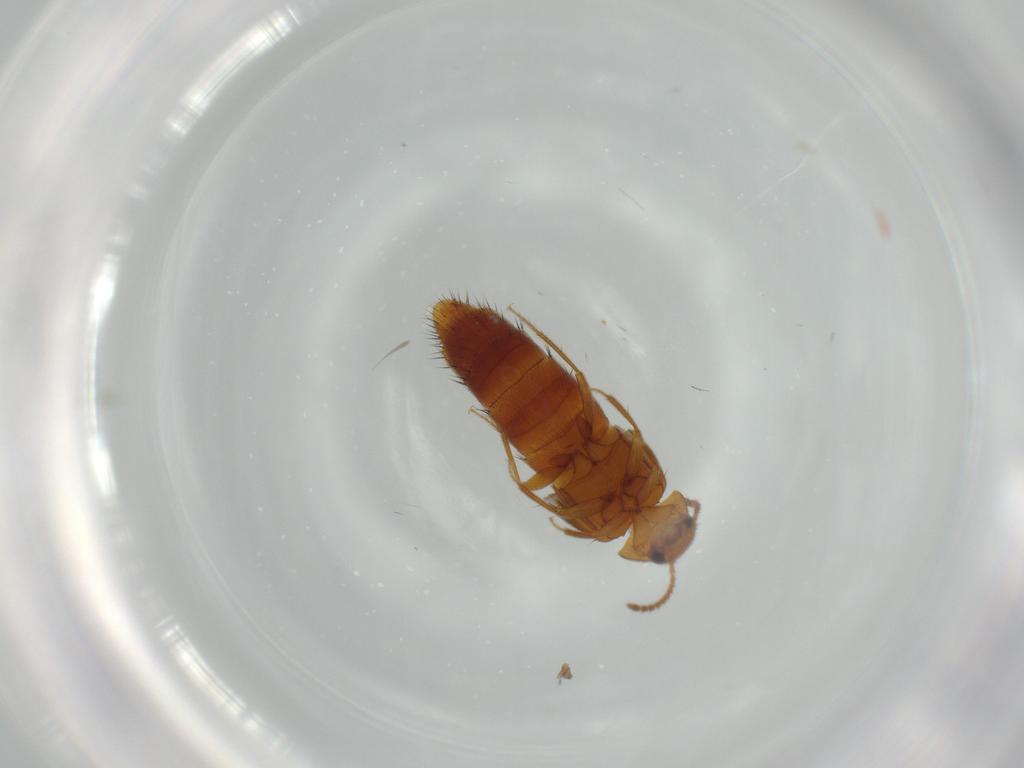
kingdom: Animalia
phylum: Arthropoda
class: Insecta
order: Coleoptera
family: Staphylinidae
